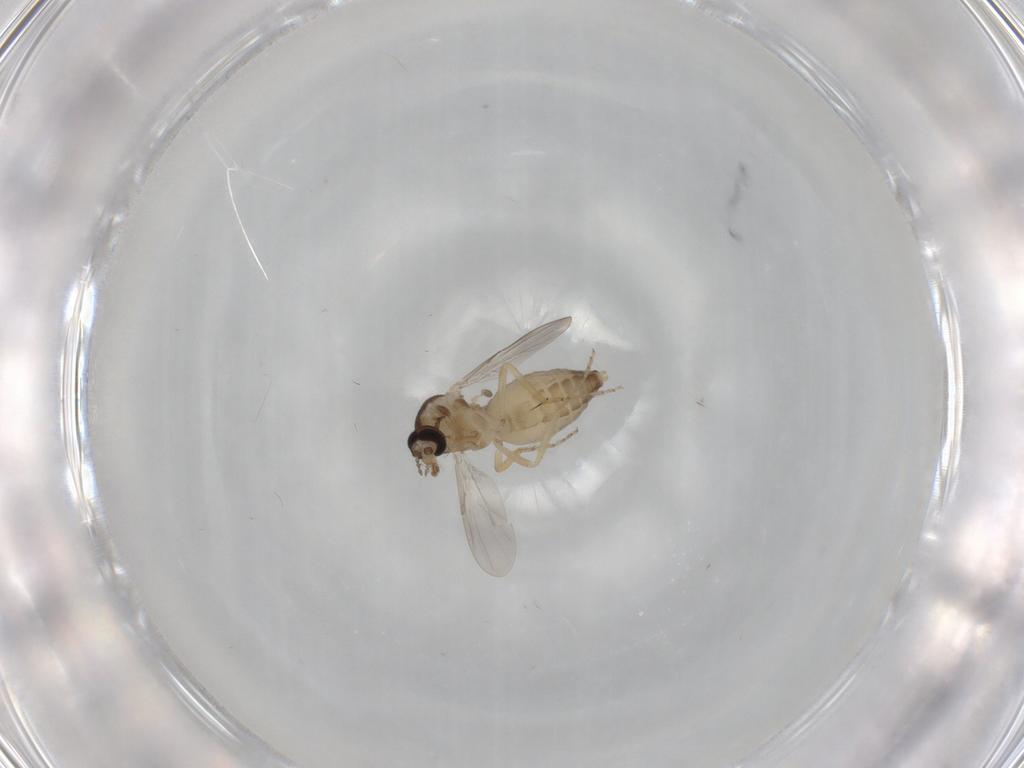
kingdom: Animalia
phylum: Arthropoda
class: Insecta
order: Diptera
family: Ceratopogonidae
